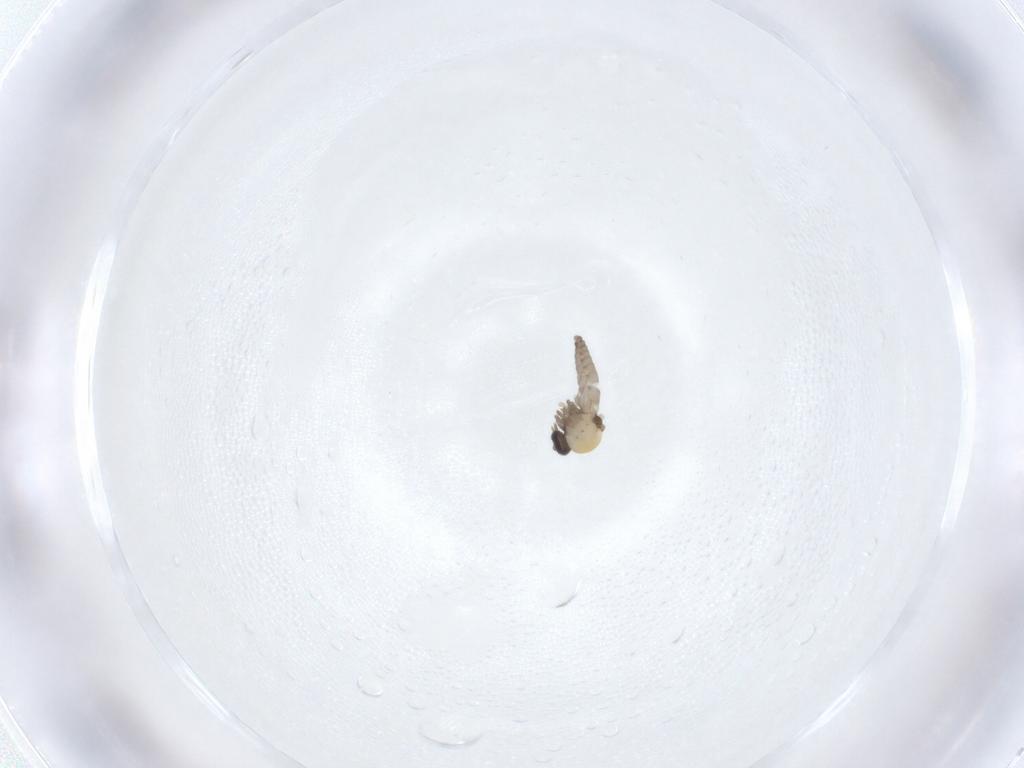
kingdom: Animalia
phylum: Arthropoda
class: Insecta
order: Diptera
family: Ceratopogonidae
